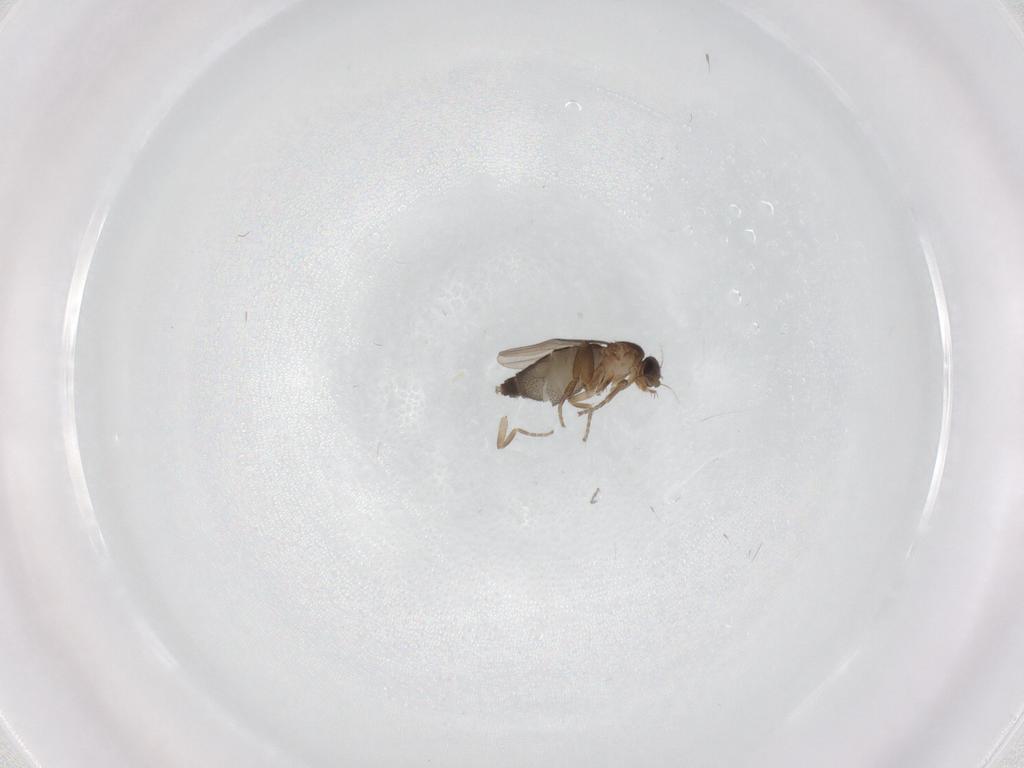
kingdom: Animalia
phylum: Arthropoda
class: Insecta
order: Diptera
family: Phoridae
